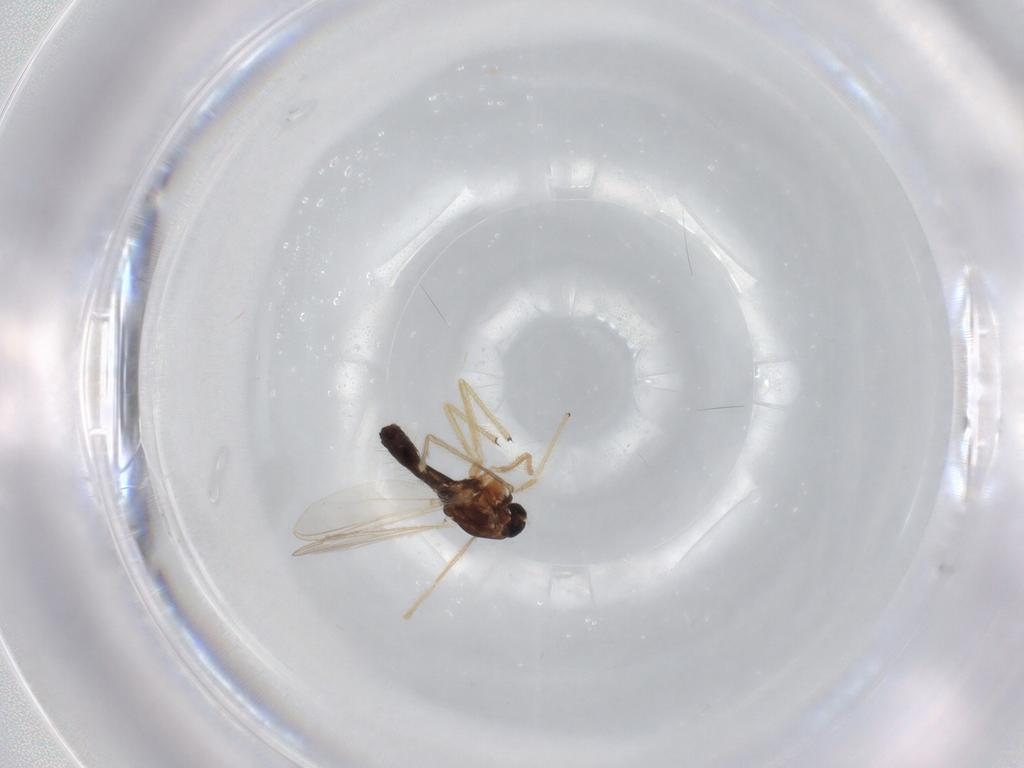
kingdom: Animalia
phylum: Arthropoda
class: Insecta
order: Diptera
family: Chironomidae
